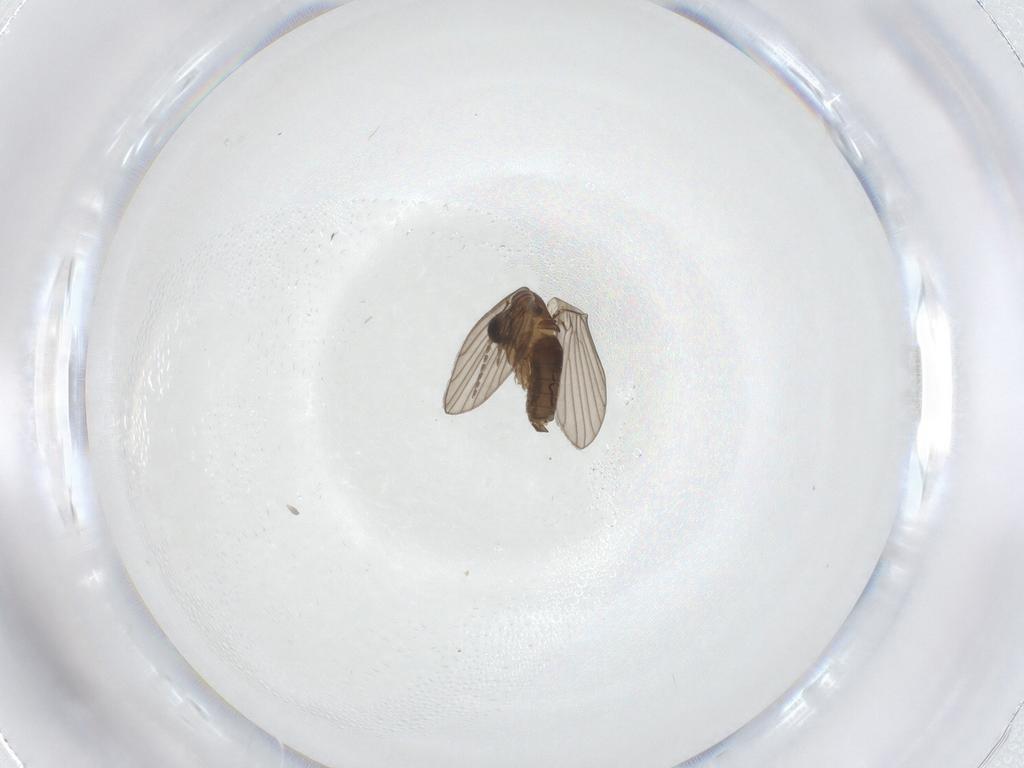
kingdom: Animalia
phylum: Arthropoda
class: Insecta
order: Diptera
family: Psychodidae
